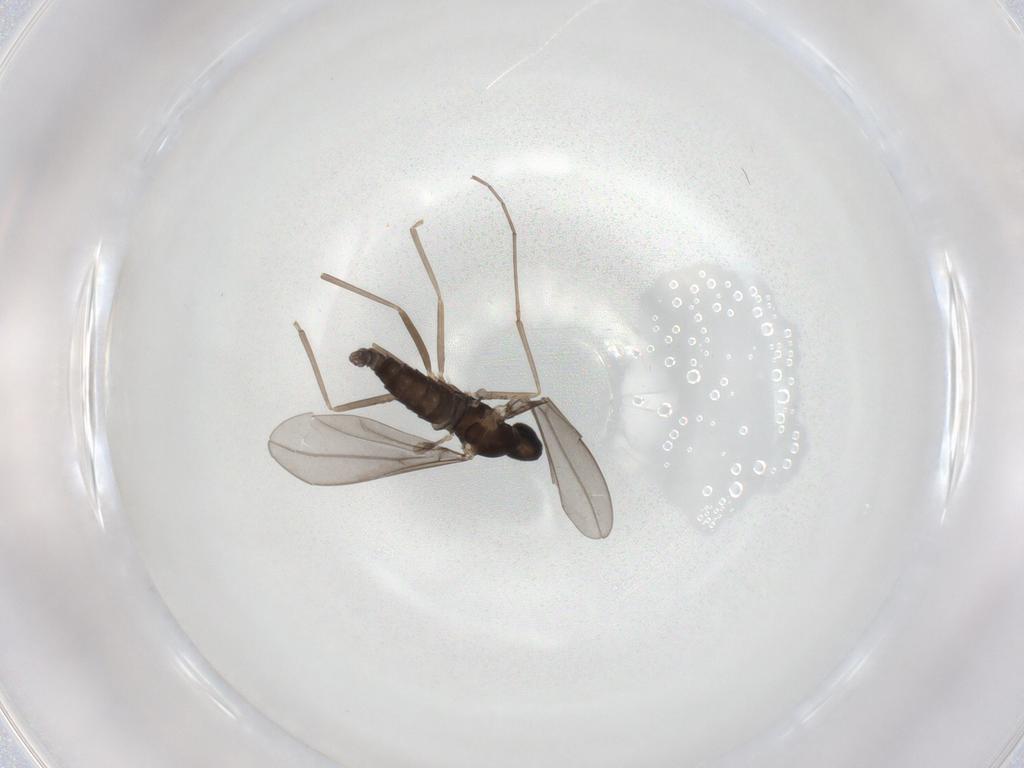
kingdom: Animalia
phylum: Arthropoda
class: Insecta
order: Diptera
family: Cecidomyiidae
